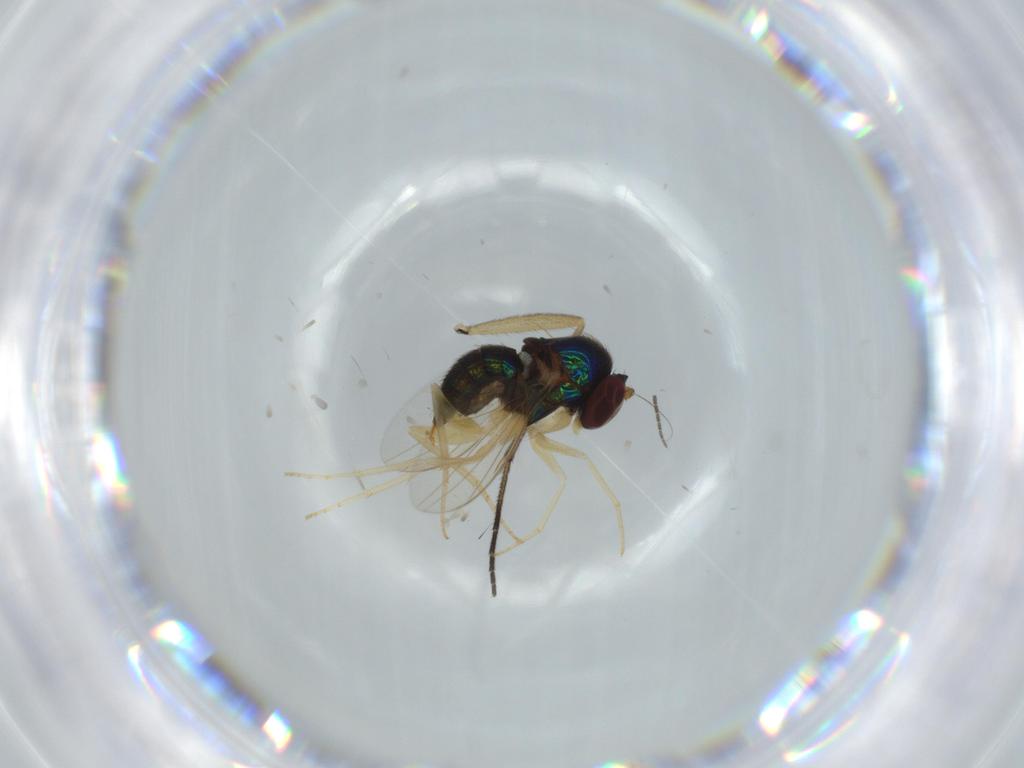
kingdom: Animalia
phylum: Arthropoda
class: Insecta
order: Diptera
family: Dolichopodidae
